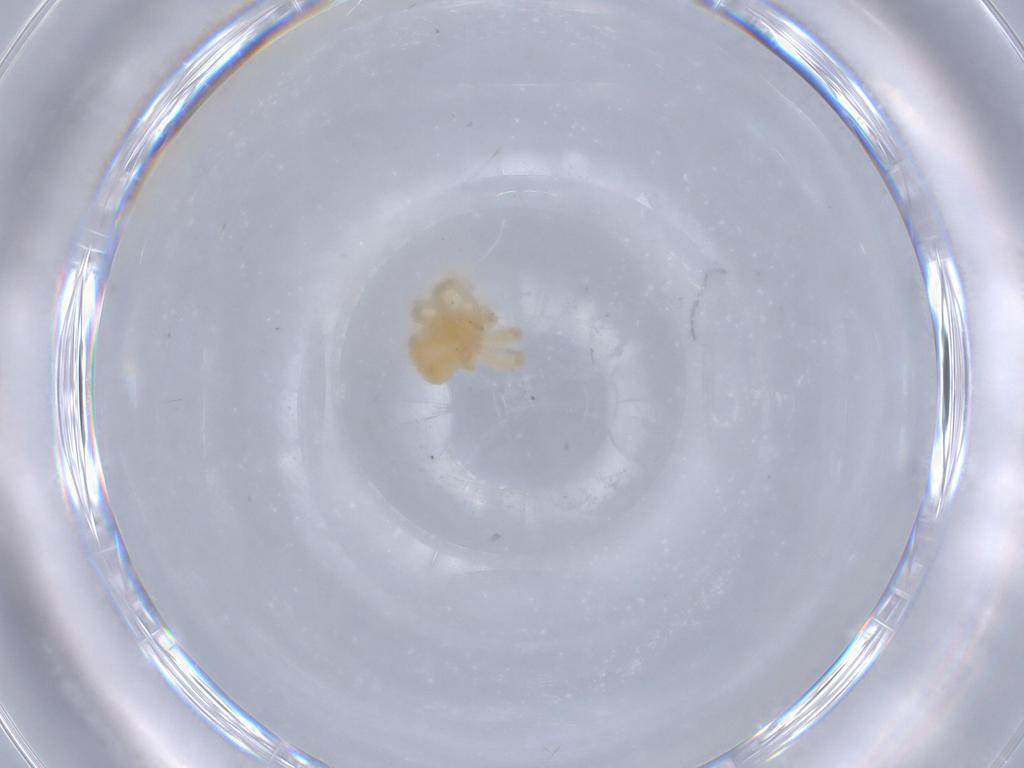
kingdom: Animalia
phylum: Arthropoda
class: Arachnida
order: Trombidiformes
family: Anystidae
